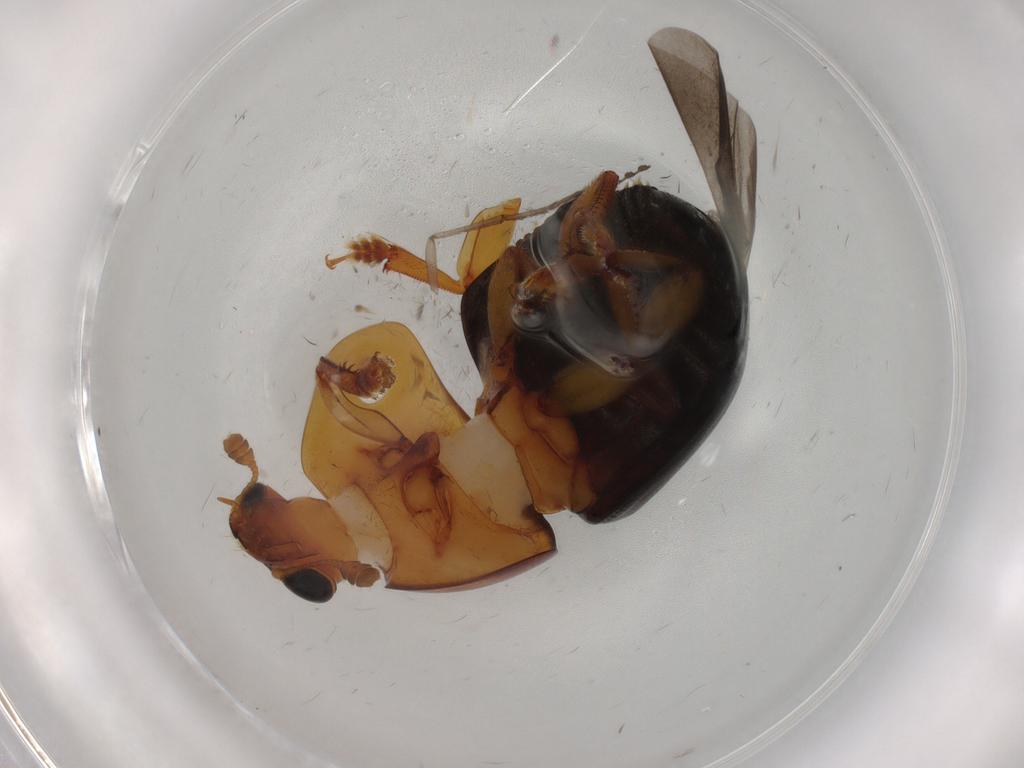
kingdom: Animalia
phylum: Arthropoda
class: Insecta
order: Coleoptera
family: Nitidulidae
